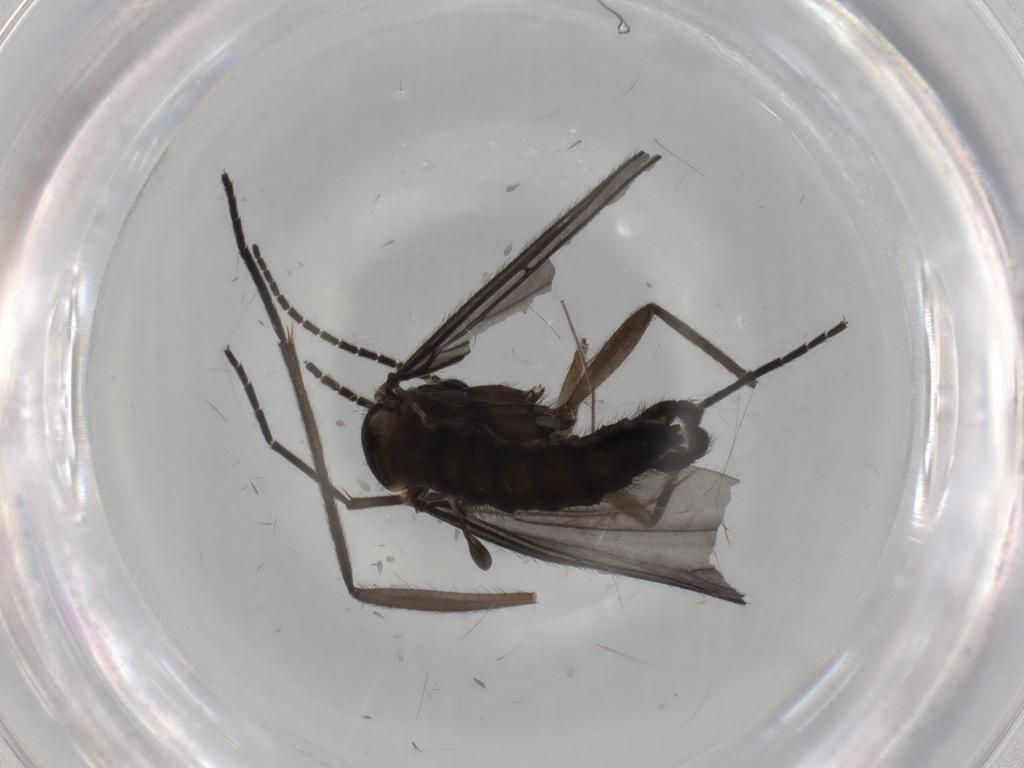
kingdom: Animalia
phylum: Arthropoda
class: Insecta
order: Diptera
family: Sciaridae
